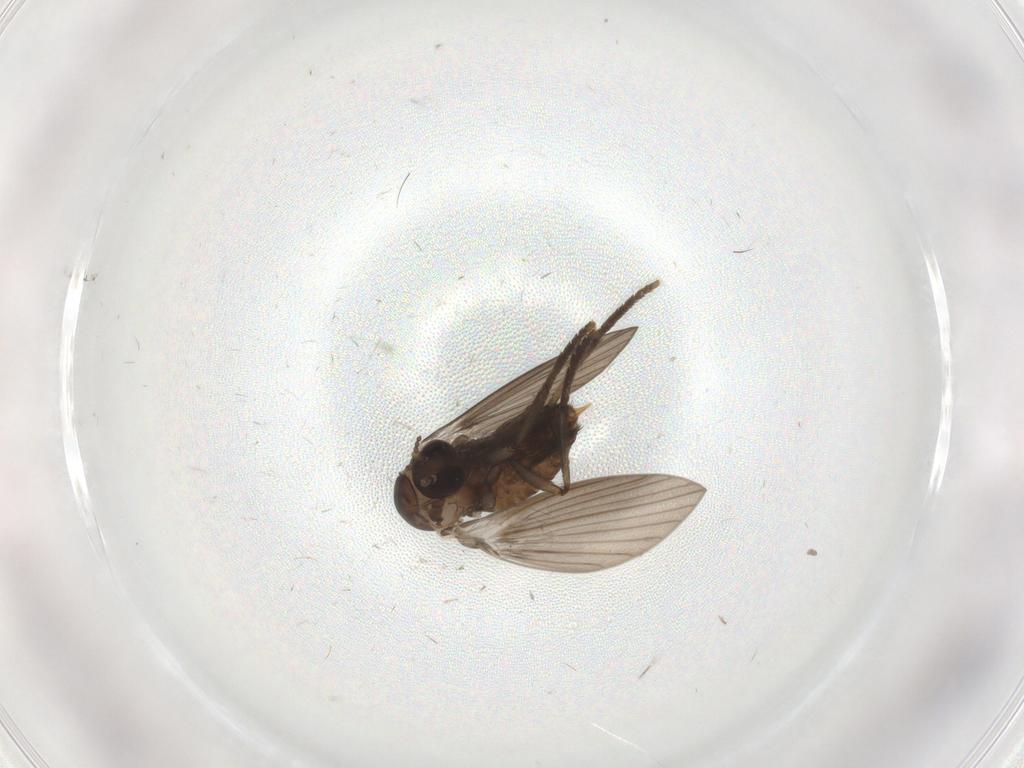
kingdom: Animalia
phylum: Arthropoda
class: Insecta
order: Diptera
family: Psychodidae
